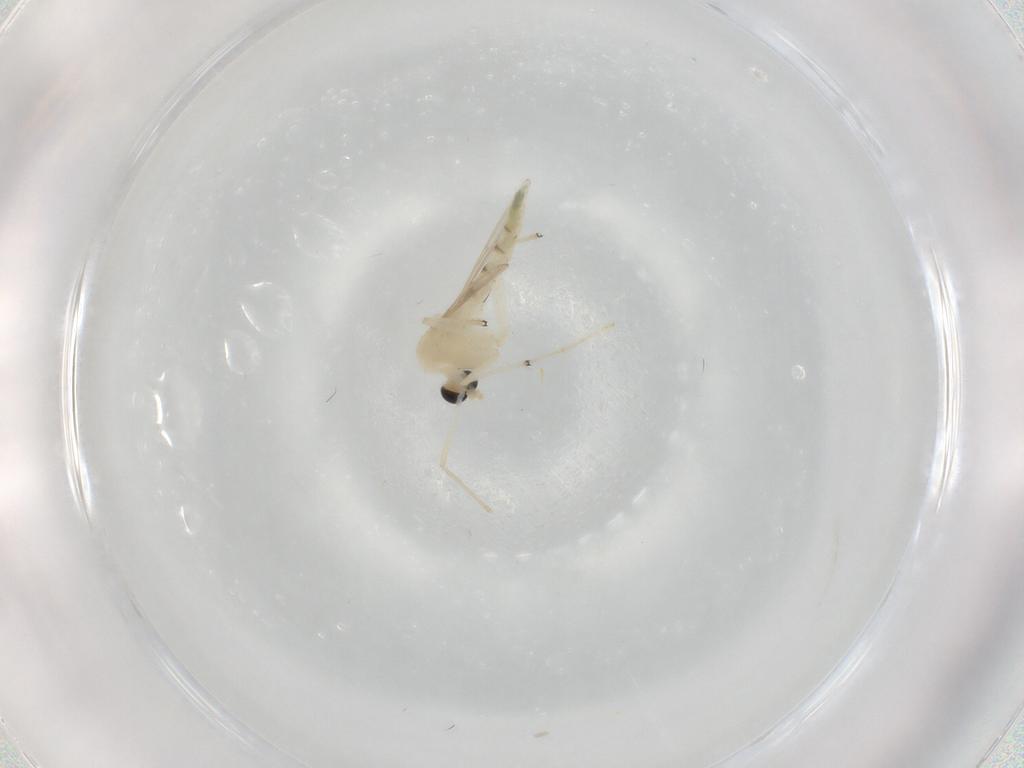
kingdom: Animalia
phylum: Arthropoda
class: Insecta
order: Diptera
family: Chironomidae
